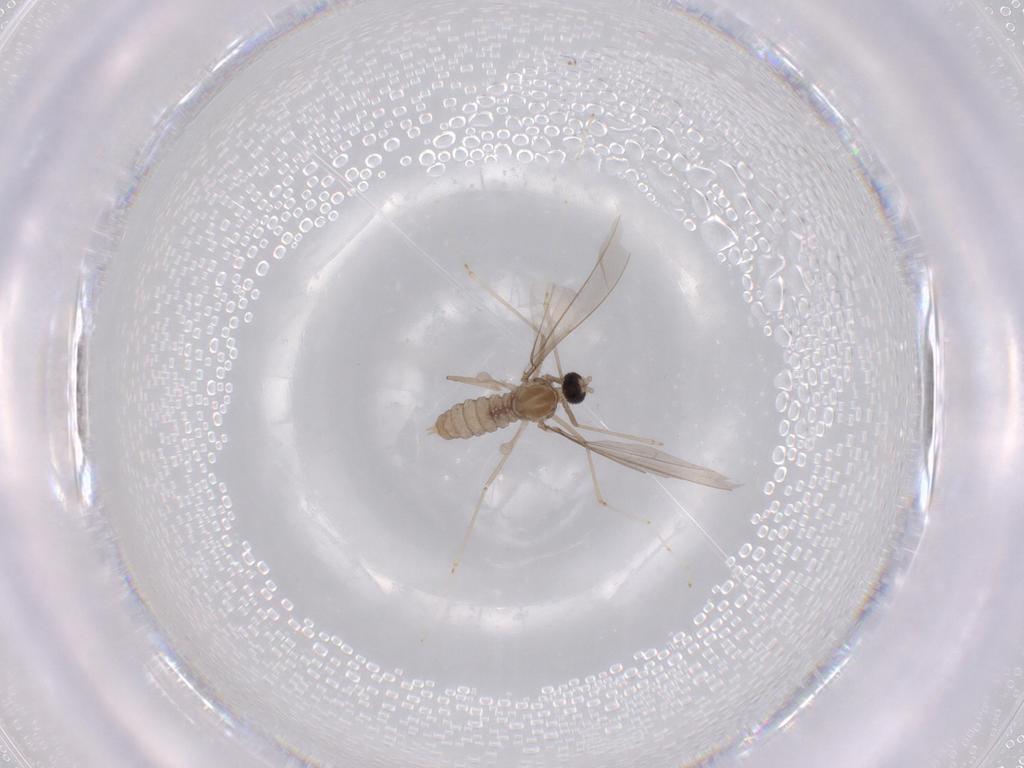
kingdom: Animalia
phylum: Arthropoda
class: Insecta
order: Diptera
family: Cecidomyiidae
